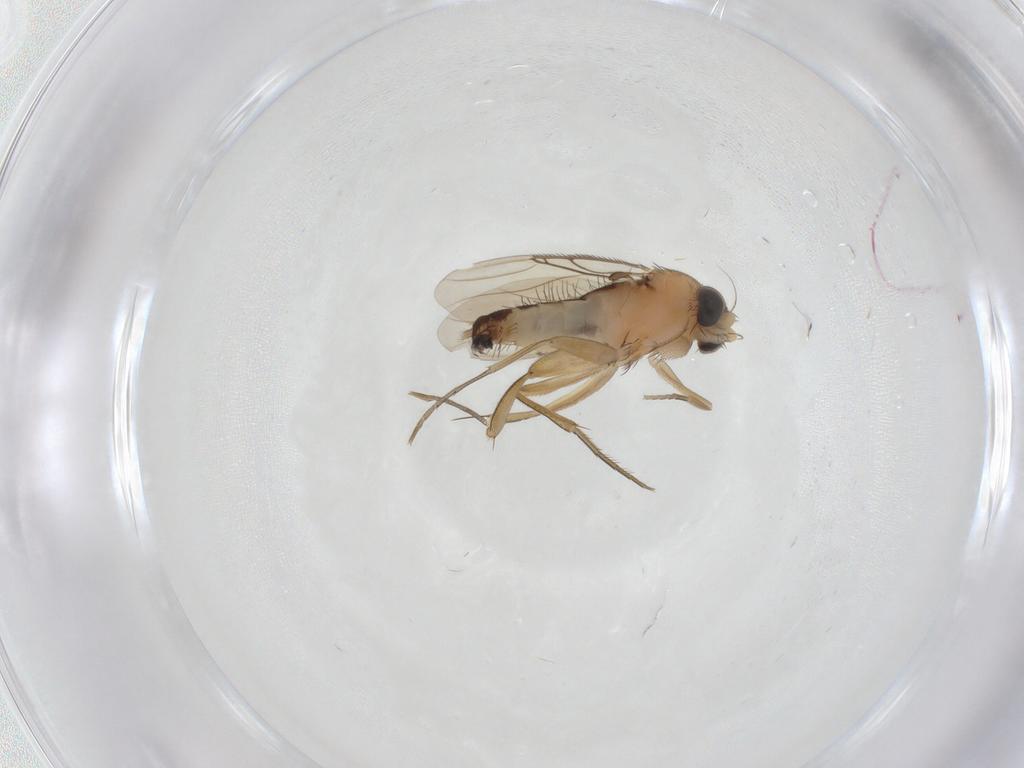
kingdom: Animalia
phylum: Arthropoda
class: Insecta
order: Diptera
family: Phoridae
